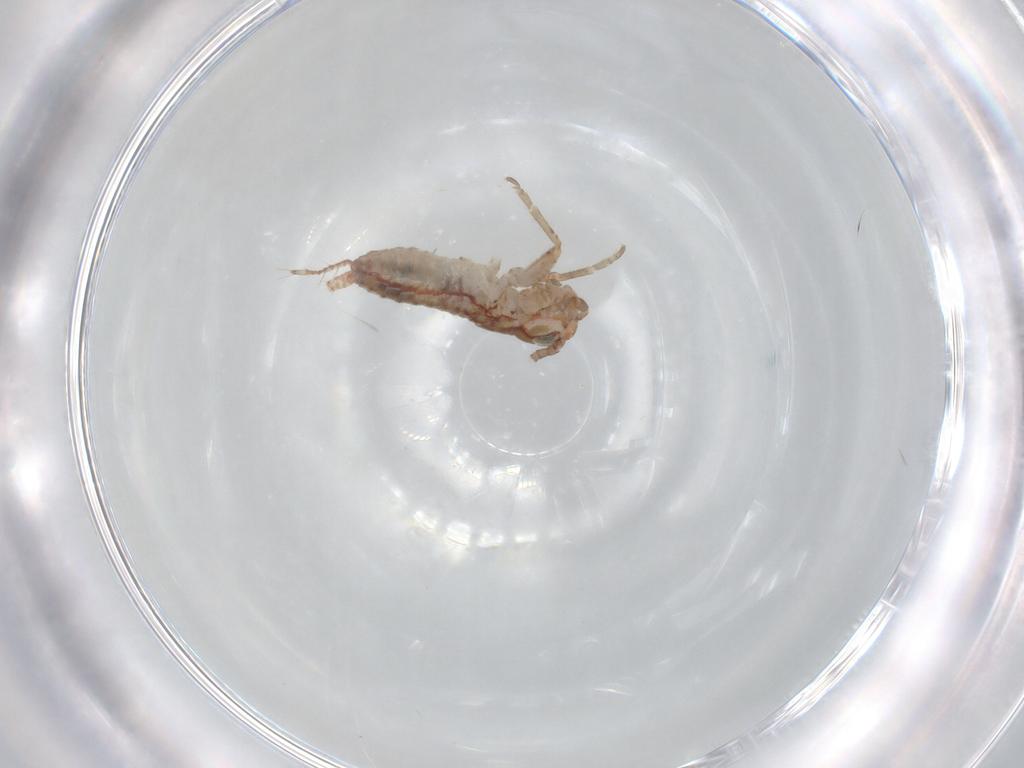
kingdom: Animalia
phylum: Arthropoda
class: Insecta
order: Orthoptera
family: Mogoplistidae
